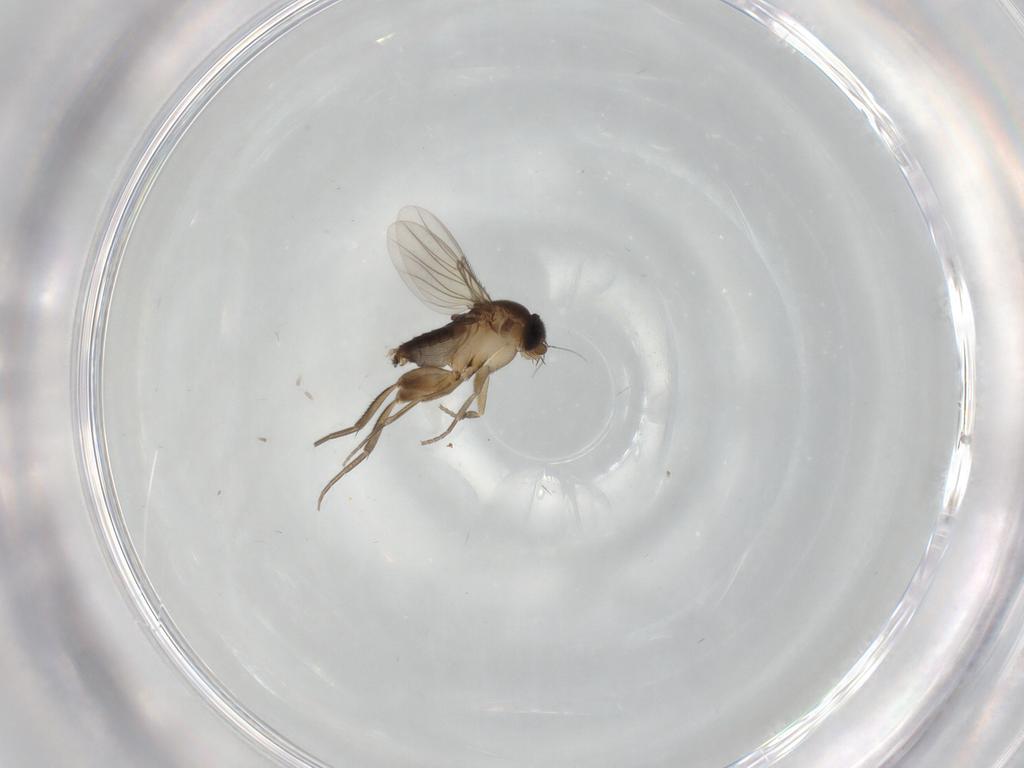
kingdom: Animalia
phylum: Arthropoda
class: Insecta
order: Diptera
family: Phoridae
